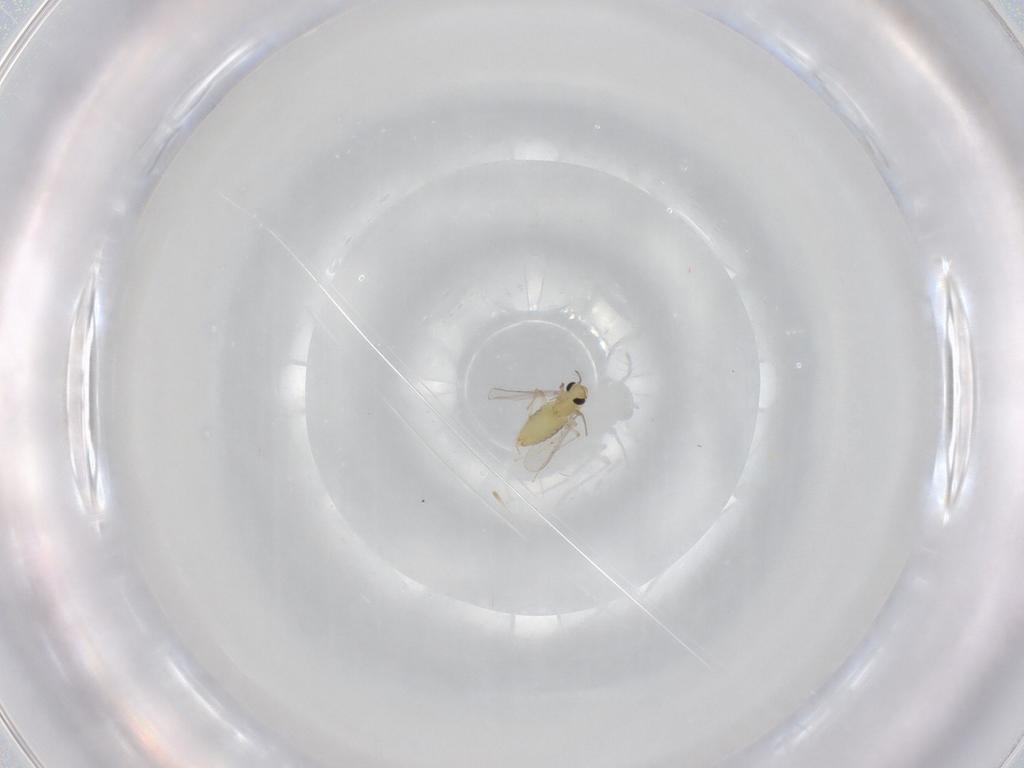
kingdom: Animalia
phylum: Arthropoda
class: Insecta
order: Diptera
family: Chironomidae
